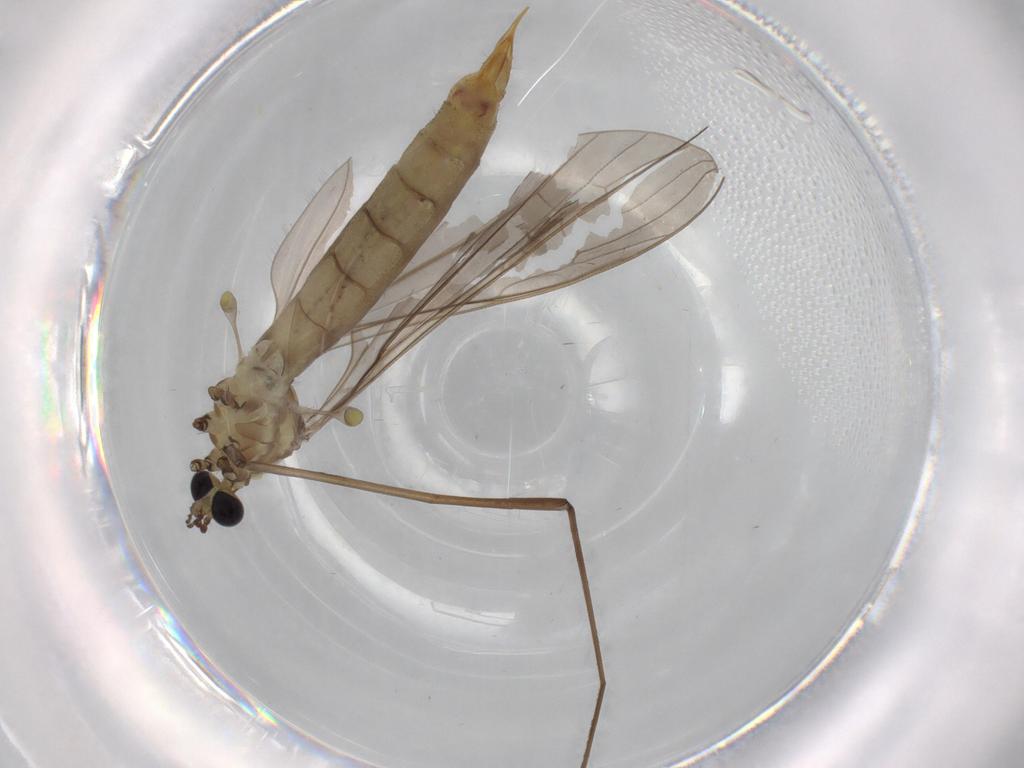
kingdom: Animalia
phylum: Arthropoda
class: Insecta
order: Diptera
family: Limoniidae
